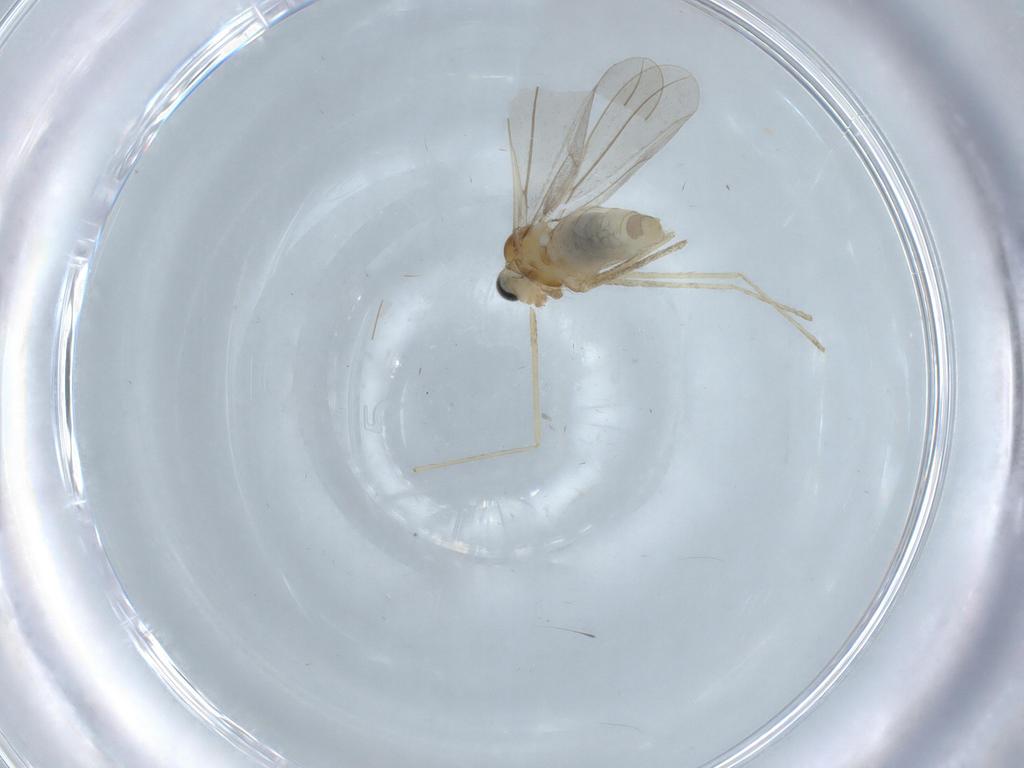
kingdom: Animalia
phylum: Arthropoda
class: Insecta
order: Diptera
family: Cecidomyiidae
